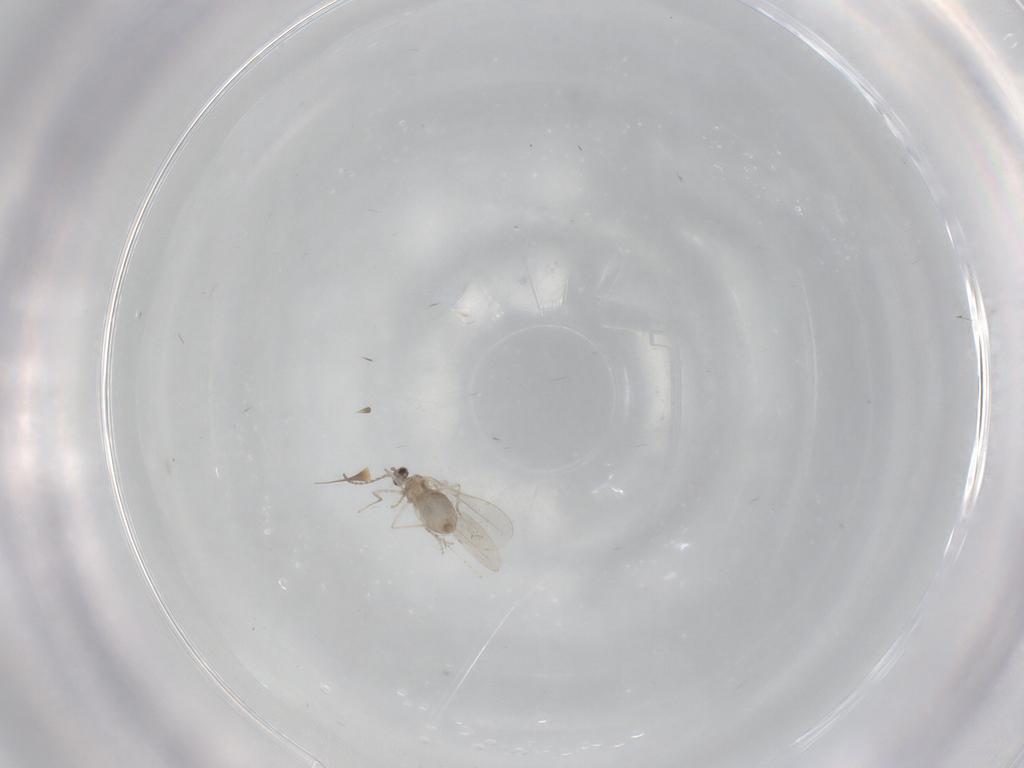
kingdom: Animalia
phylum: Arthropoda
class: Insecta
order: Diptera
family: Cecidomyiidae
